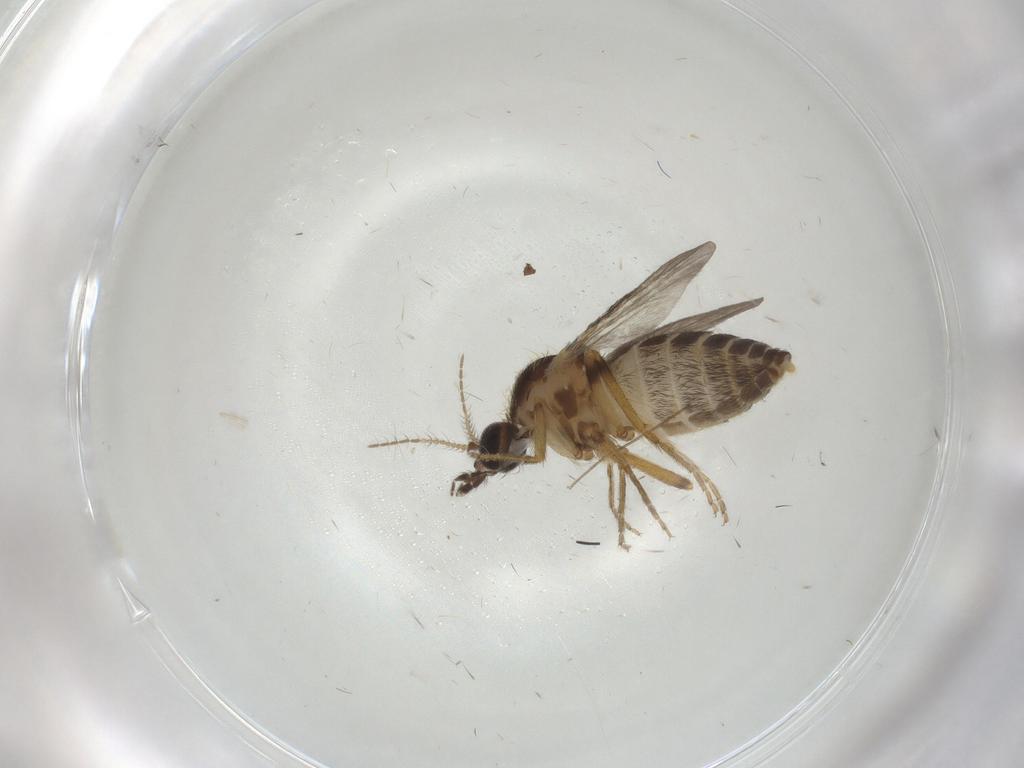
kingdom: Animalia
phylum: Arthropoda
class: Insecta
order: Diptera
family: Ceratopogonidae
